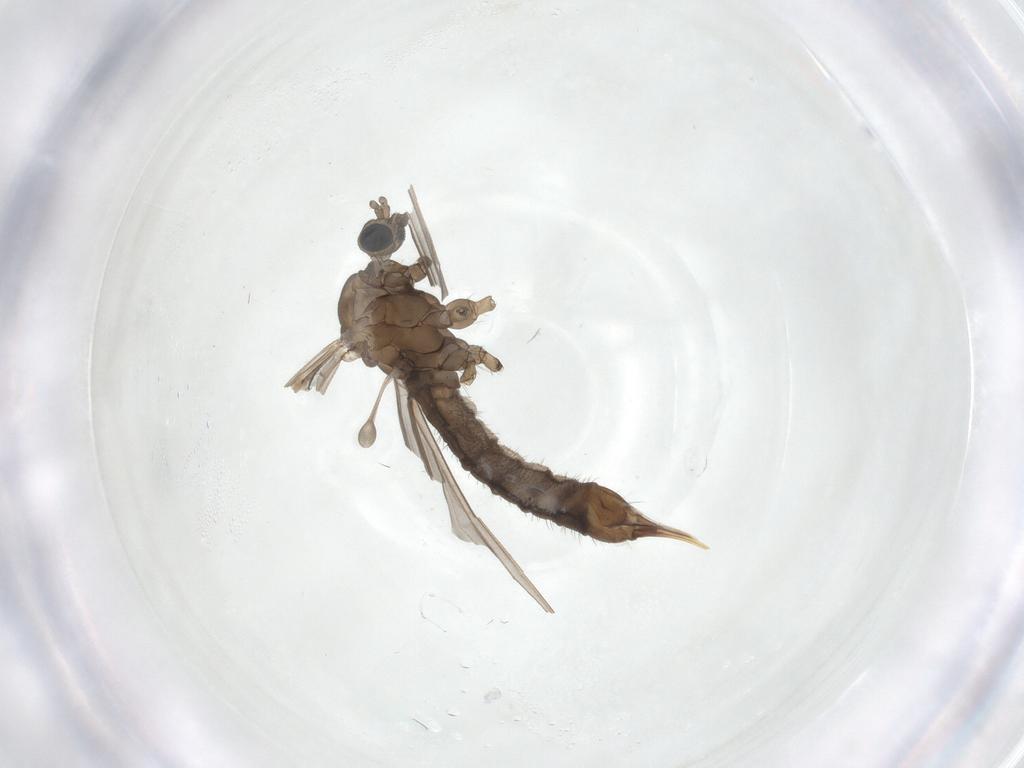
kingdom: Animalia
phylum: Arthropoda
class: Insecta
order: Diptera
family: Limoniidae
